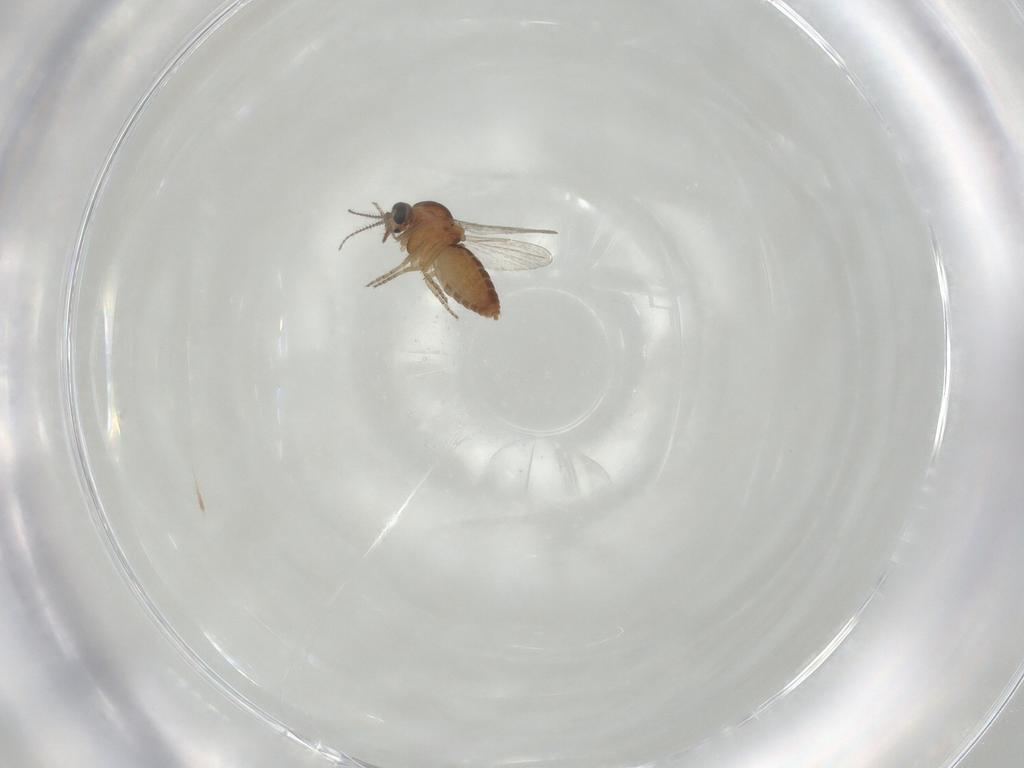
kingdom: Animalia
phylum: Arthropoda
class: Insecta
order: Diptera
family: Ceratopogonidae
